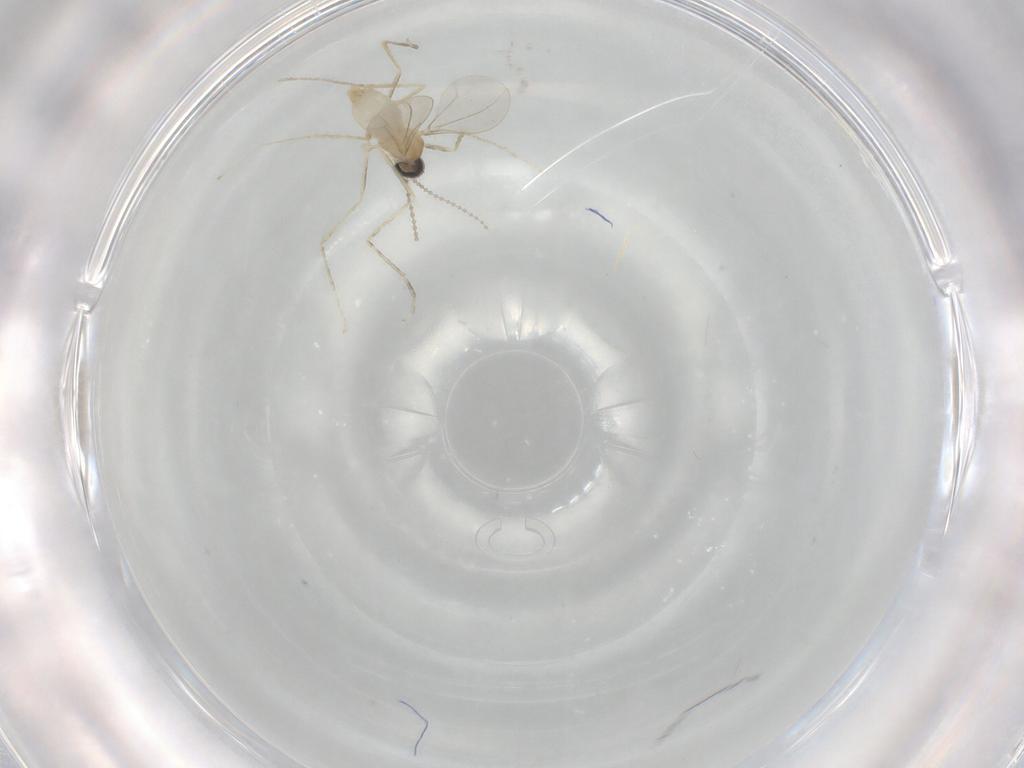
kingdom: Animalia
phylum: Arthropoda
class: Insecta
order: Diptera
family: Cecidomyiidae
